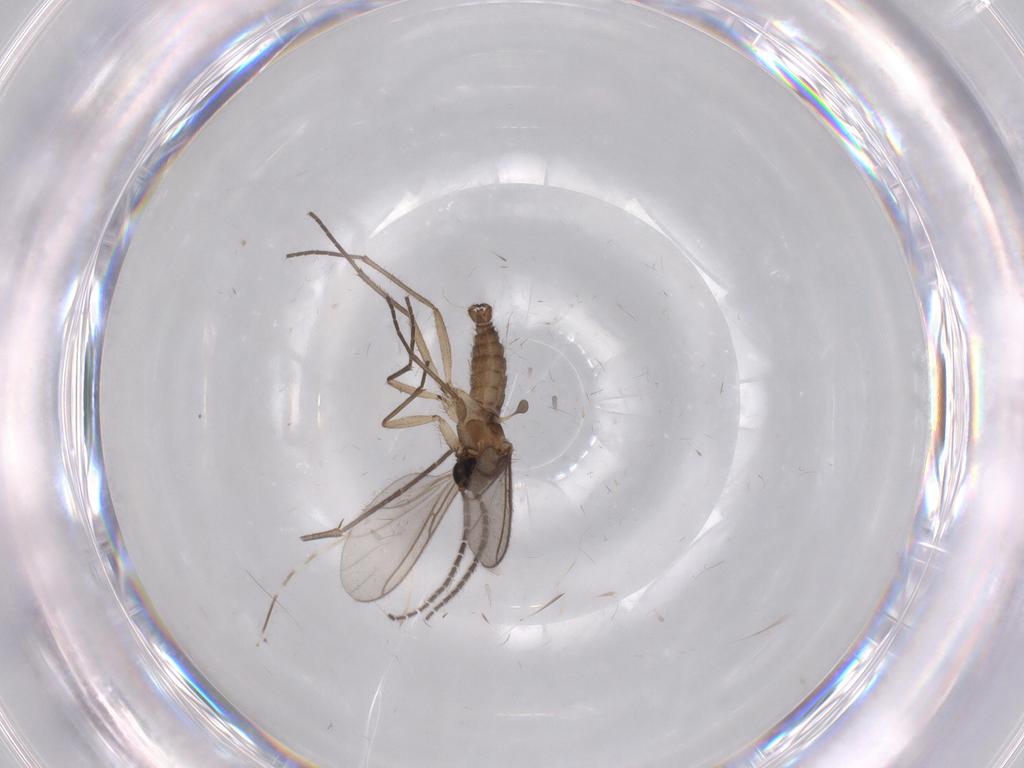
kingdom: Animalia
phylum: Arthropoda
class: Insecta
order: Diptera
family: Sciaridae
